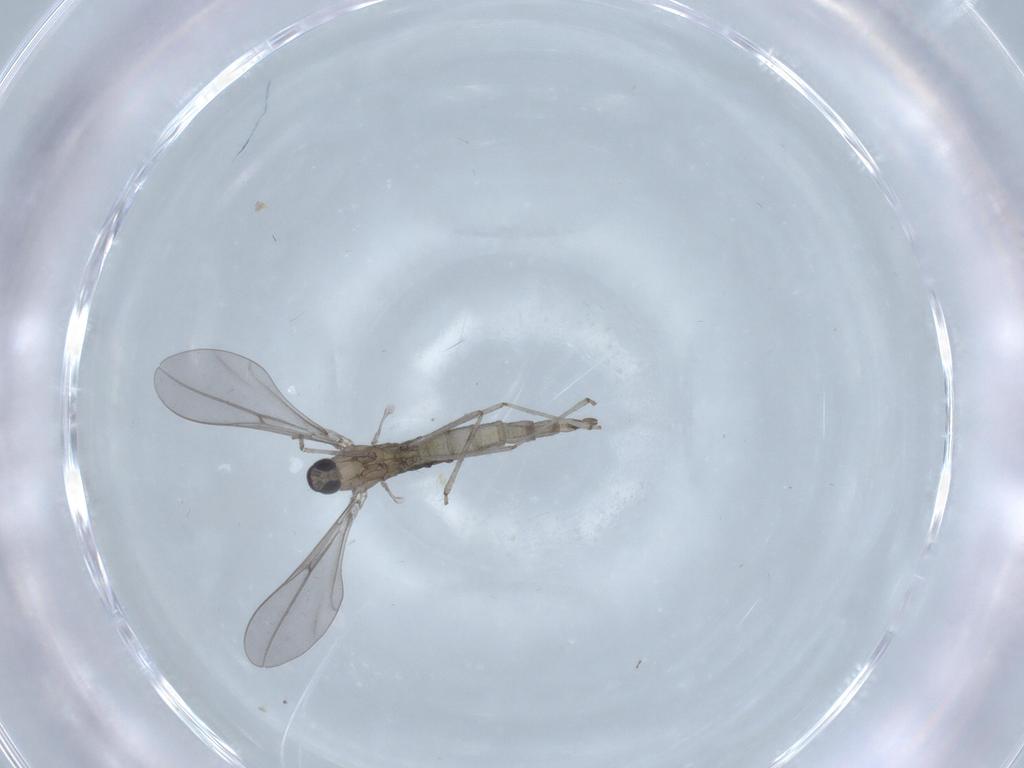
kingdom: Animalia
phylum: Arthropoda
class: Insecta
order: Diptera
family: Cecidomyiidae
